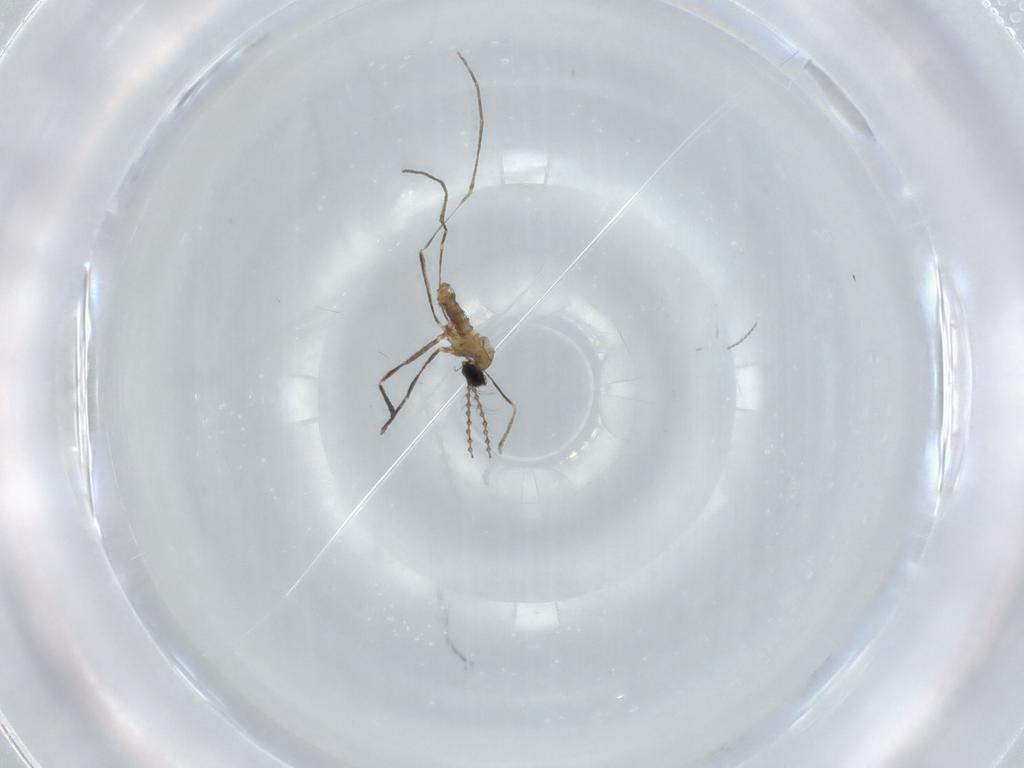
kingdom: Animalia
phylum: Arthropoda
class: Insecta
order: Diptera
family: Cecidomyiidae
